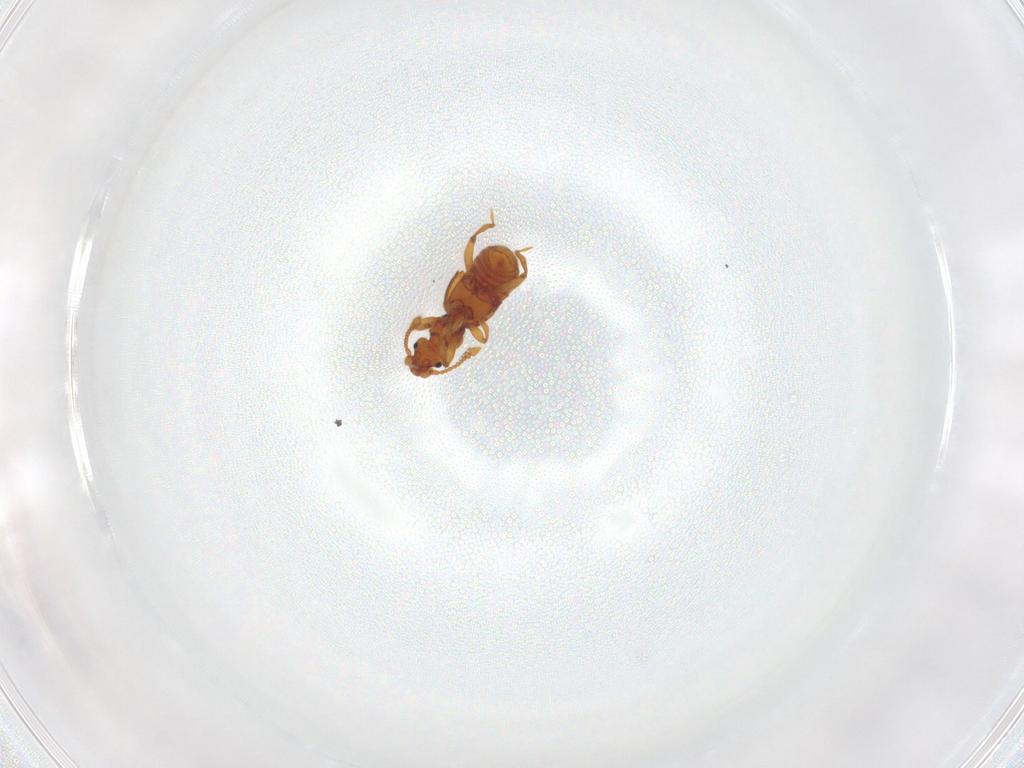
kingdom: Animalia
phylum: Arthropoda
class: Insecta
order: Coleoptera
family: Staphylinidae
